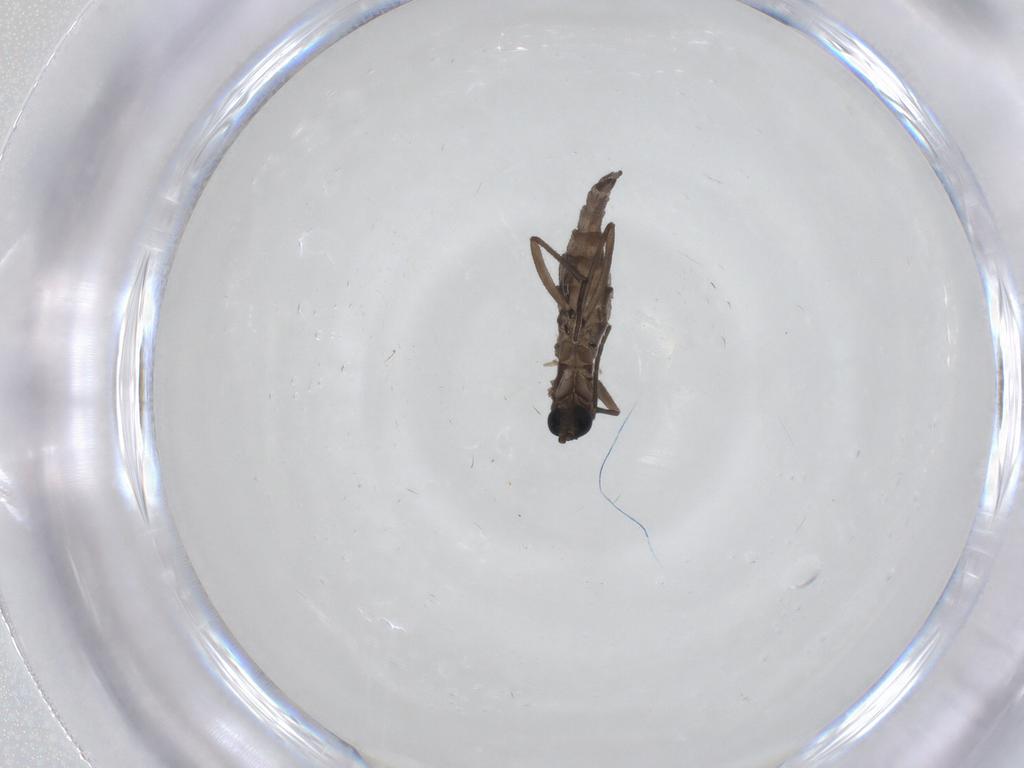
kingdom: Animalia
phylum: Arthropoda
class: Insecta
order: Diptera
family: Sciaridae
